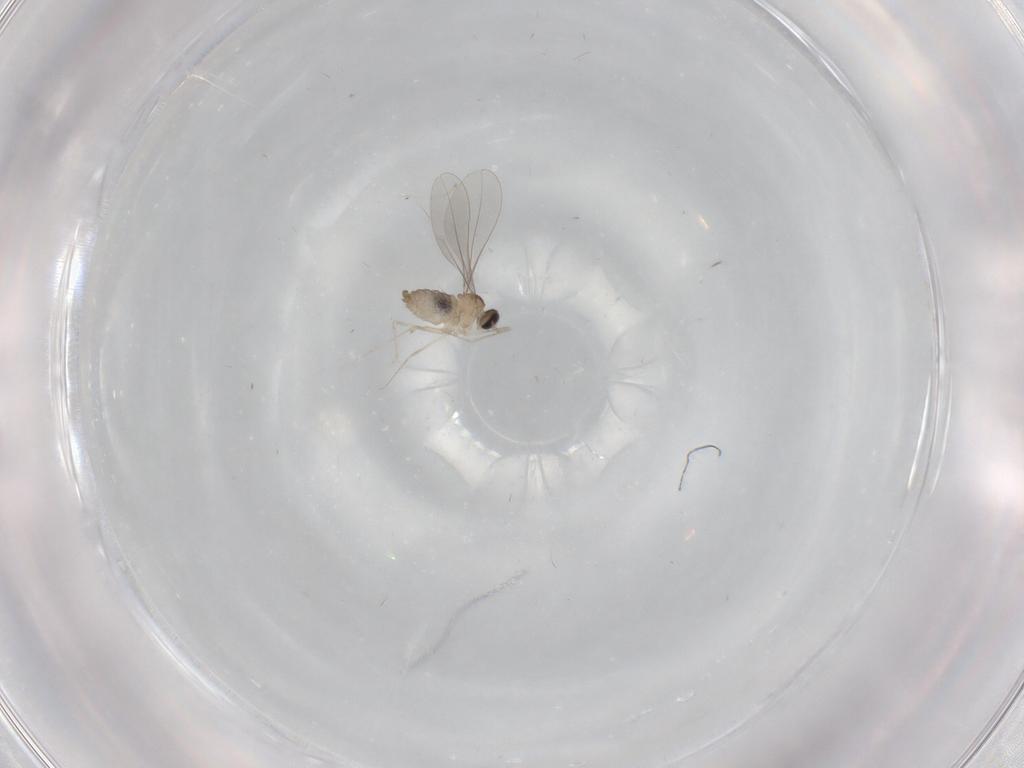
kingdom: Animalia
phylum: Arthropoda
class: Insecta
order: Diptera
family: Cecidomyiidae
